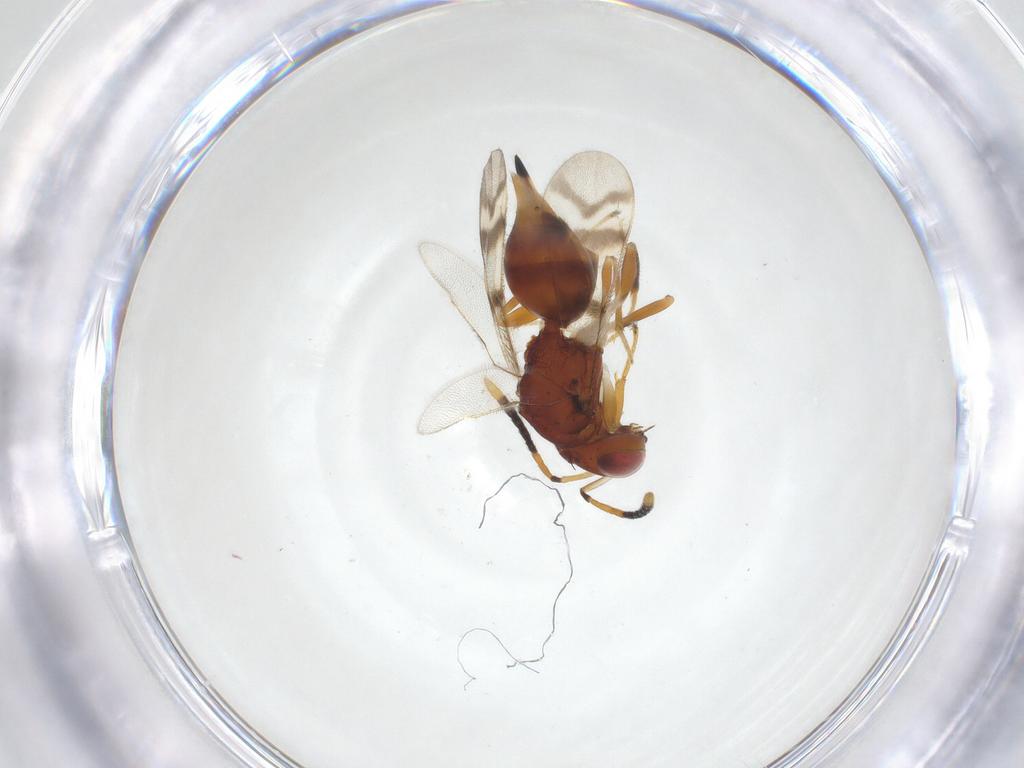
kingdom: Animalia
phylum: Arthropoda
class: Insecta
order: Hymenoptera
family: Diparidae
